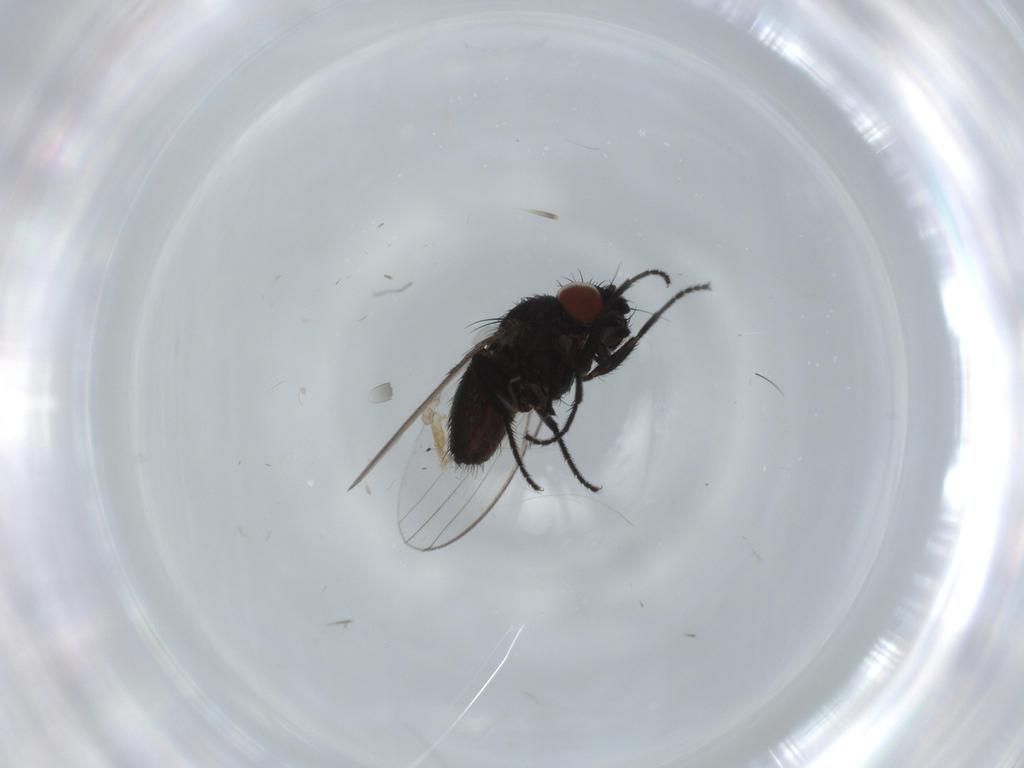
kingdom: Animalia
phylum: Arthropoda
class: Insecta
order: Diptera
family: Milichiidae
